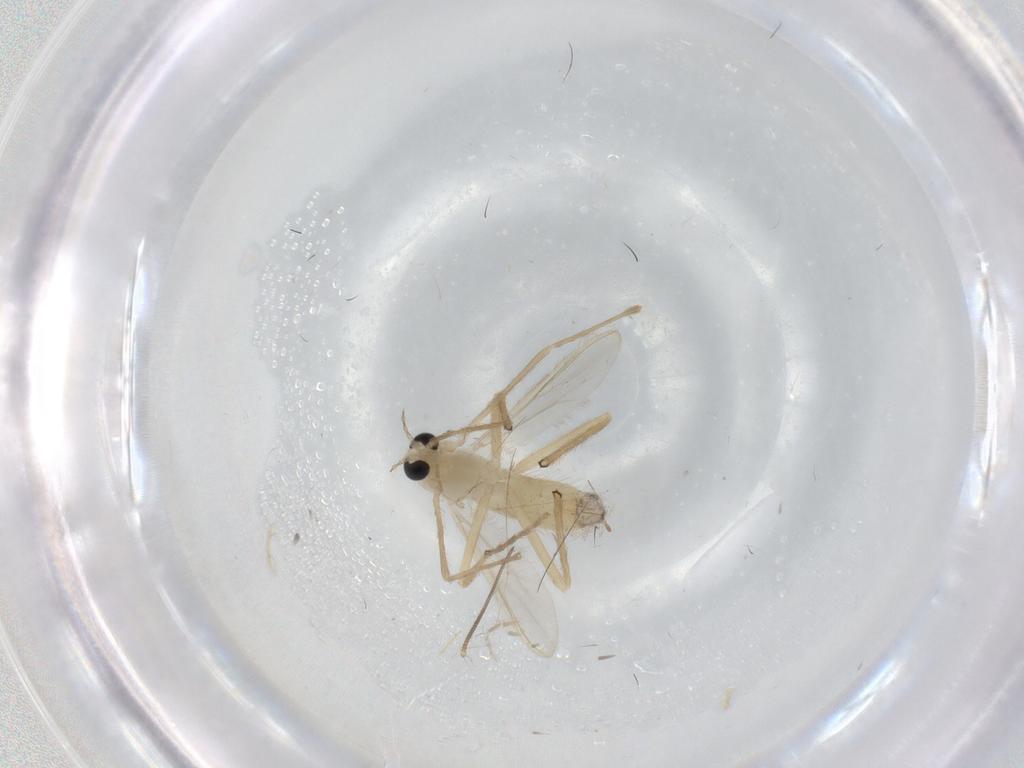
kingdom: Animalia
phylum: Arthropoda
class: Insecta
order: Diptera
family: Chironomidae
